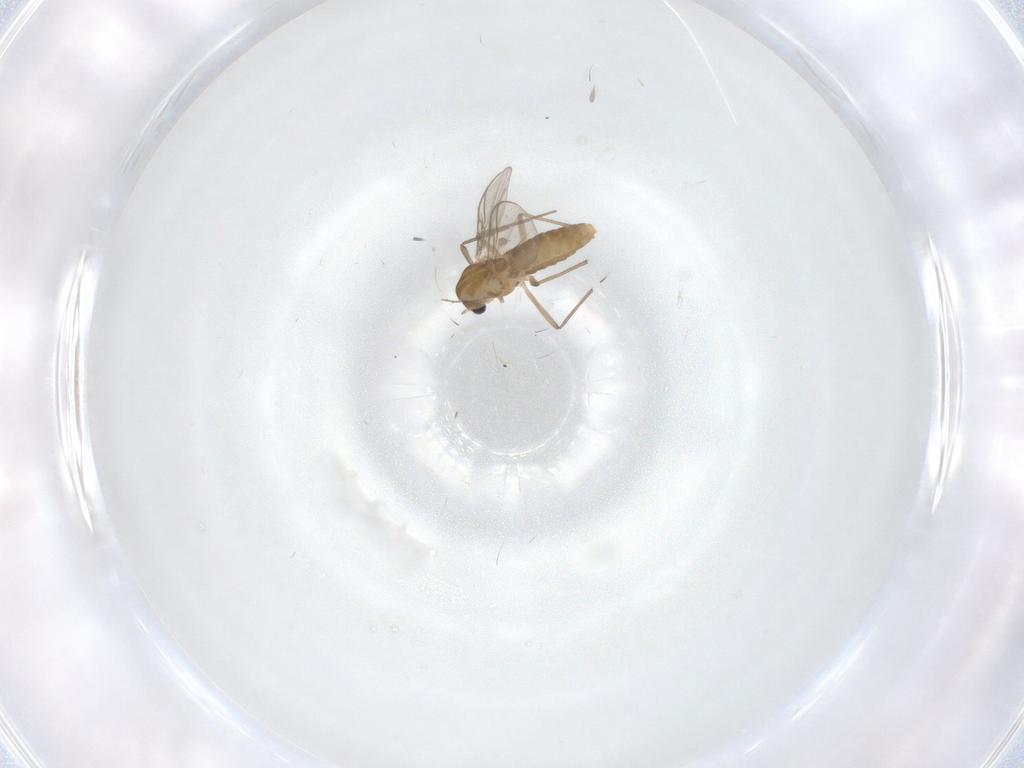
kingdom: Animalia
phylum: Arthropoda
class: Insecta
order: Diptera
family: Chironomidae
